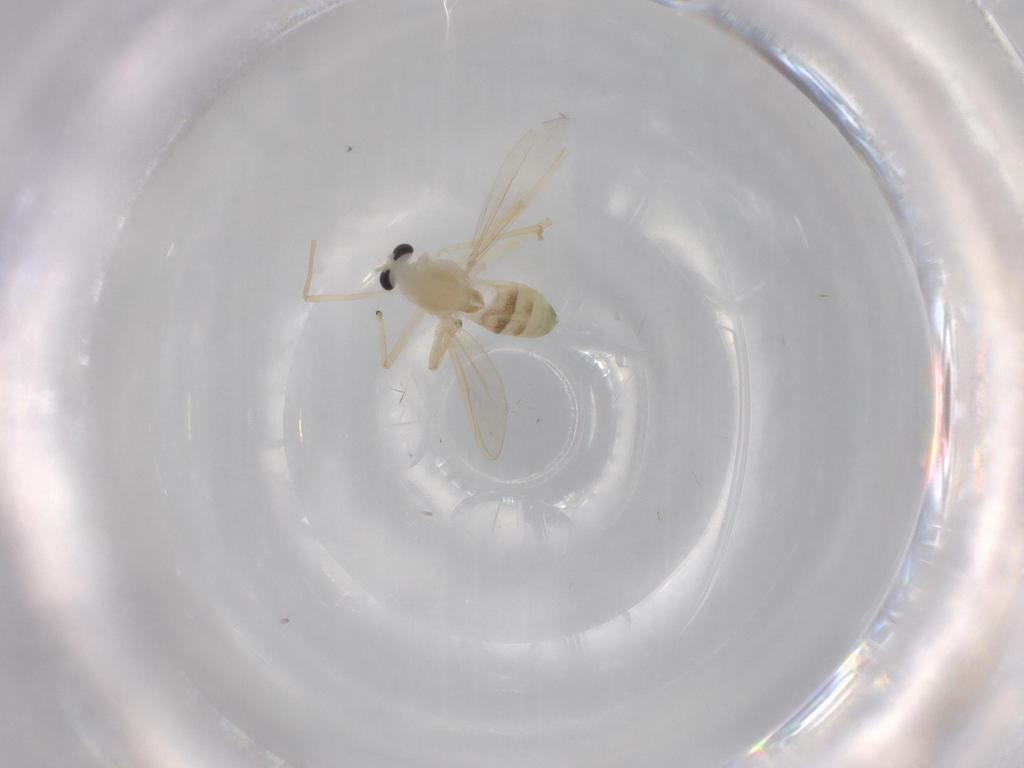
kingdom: Animalia
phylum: Arthropoda
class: Insecta
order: Diptera
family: Chironomidae
